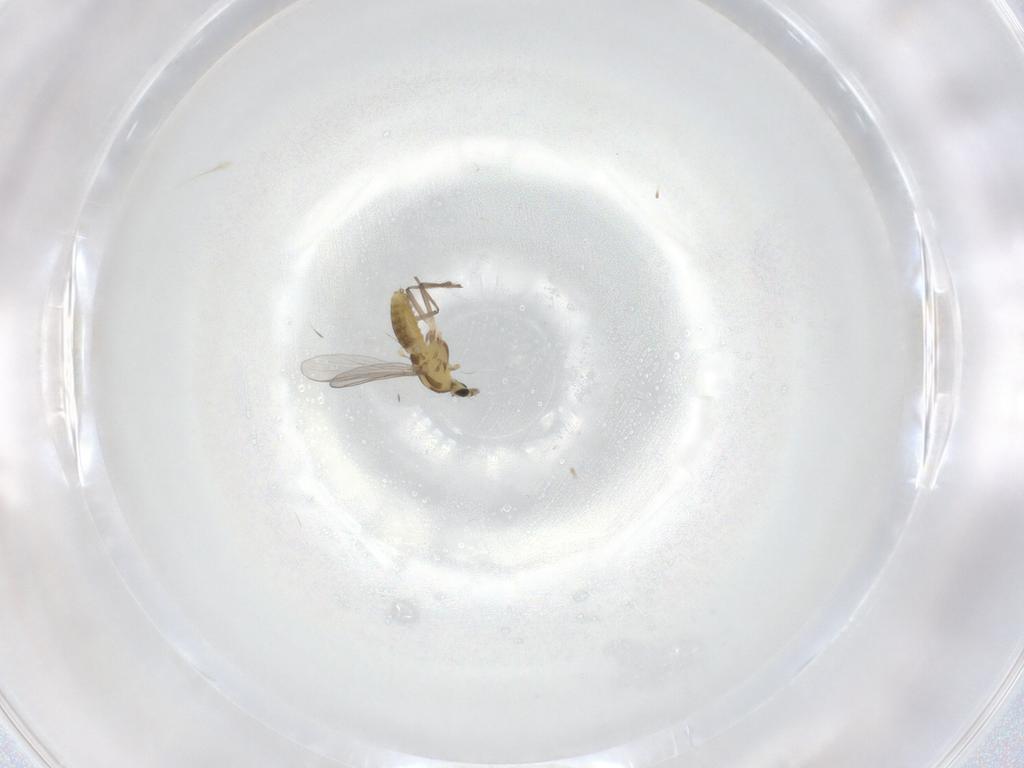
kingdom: Animalia
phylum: Arthropoda
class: Insecta
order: Diptera
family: Chironomidae
